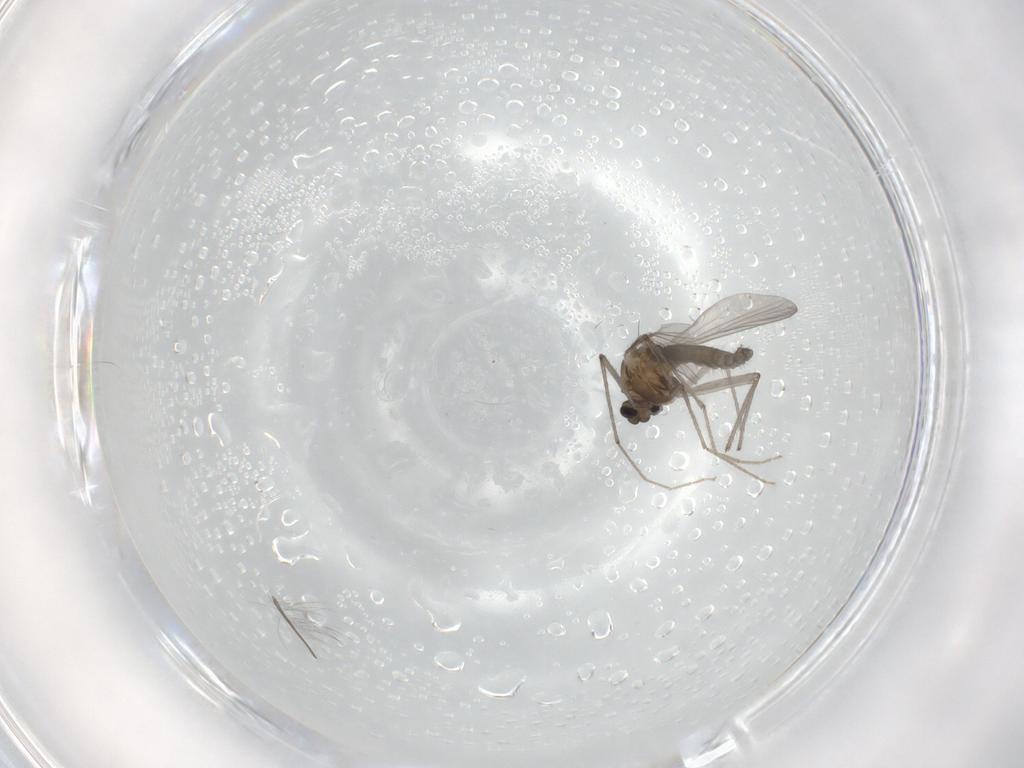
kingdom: Animalia
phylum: Arthropoda
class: Insecta
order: Diptera
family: Chironomidae
